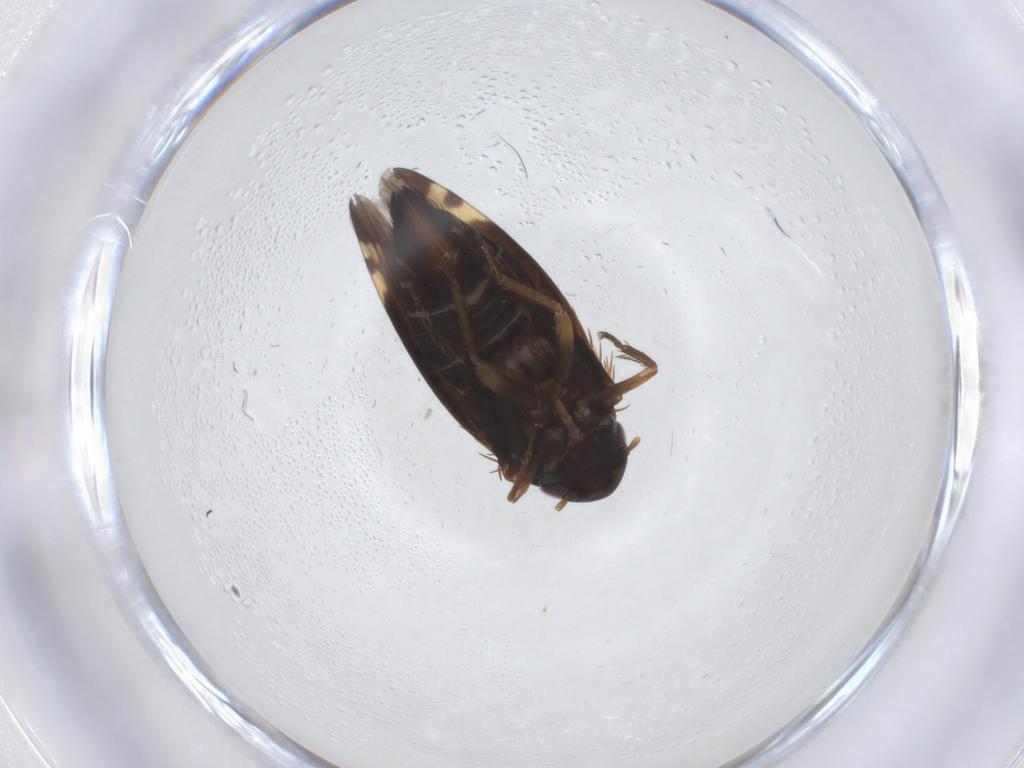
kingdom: Animalia
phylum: Arthropoda
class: Insecta
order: Hemiptera
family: Cicadellidae
